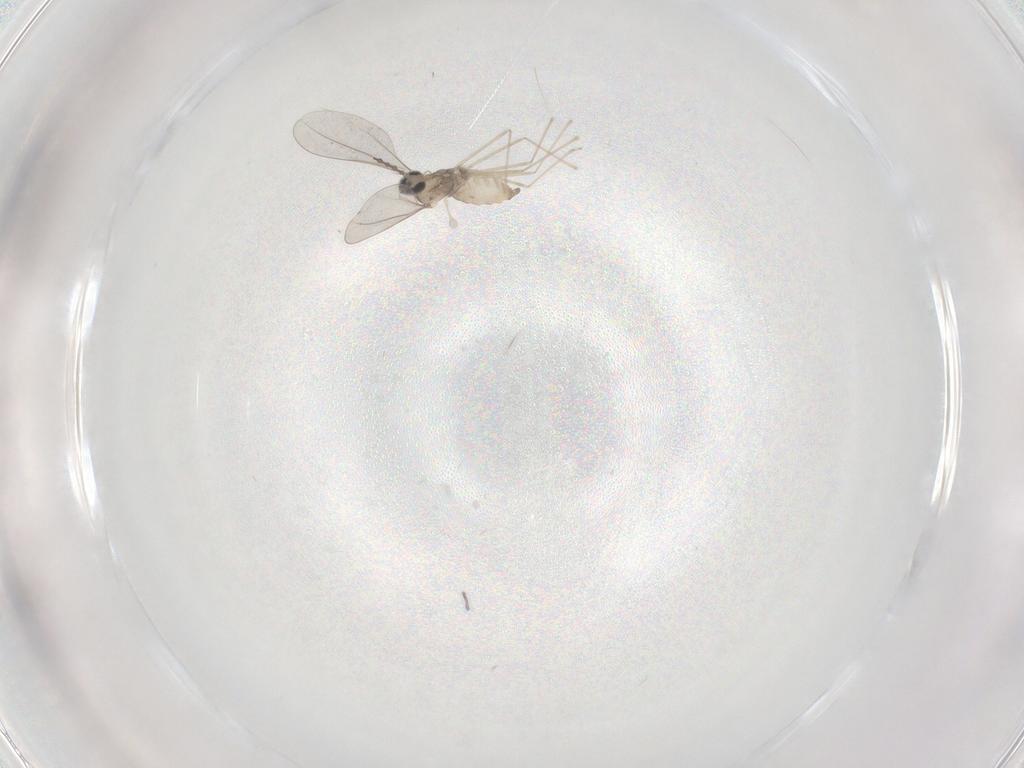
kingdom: Animalia
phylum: Arthropoda
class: Insecta
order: Diptera
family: Cecidomyiidae
